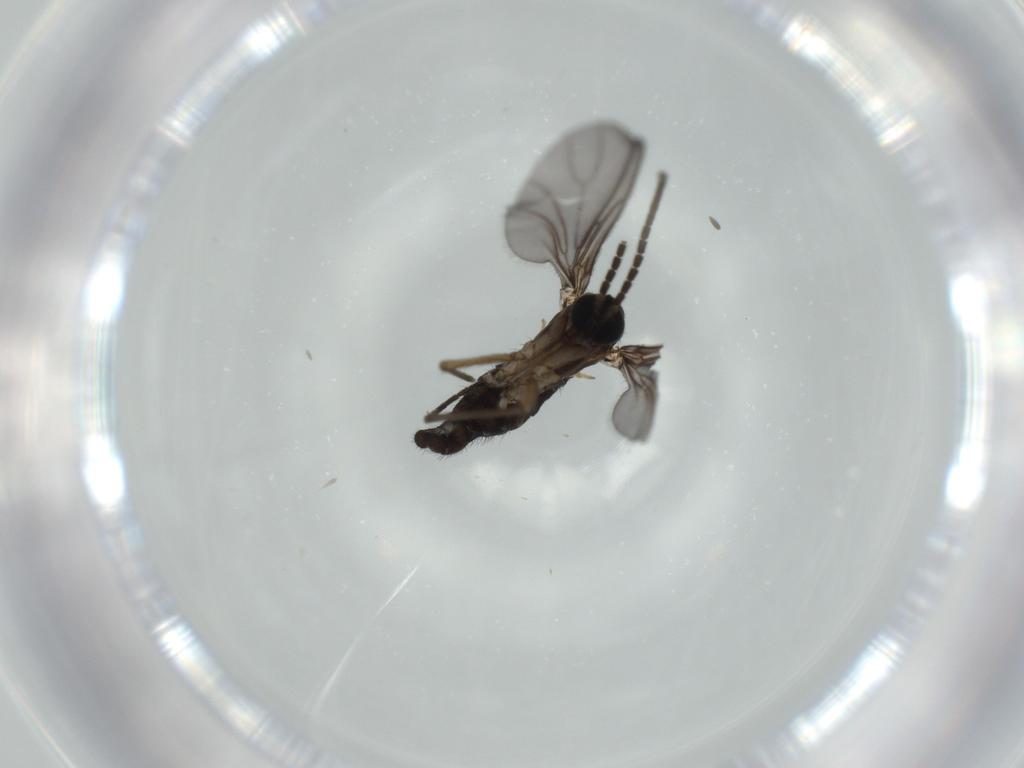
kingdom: Animalia
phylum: Arthropoda
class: Insecta
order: Diptera
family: Sciaridae
